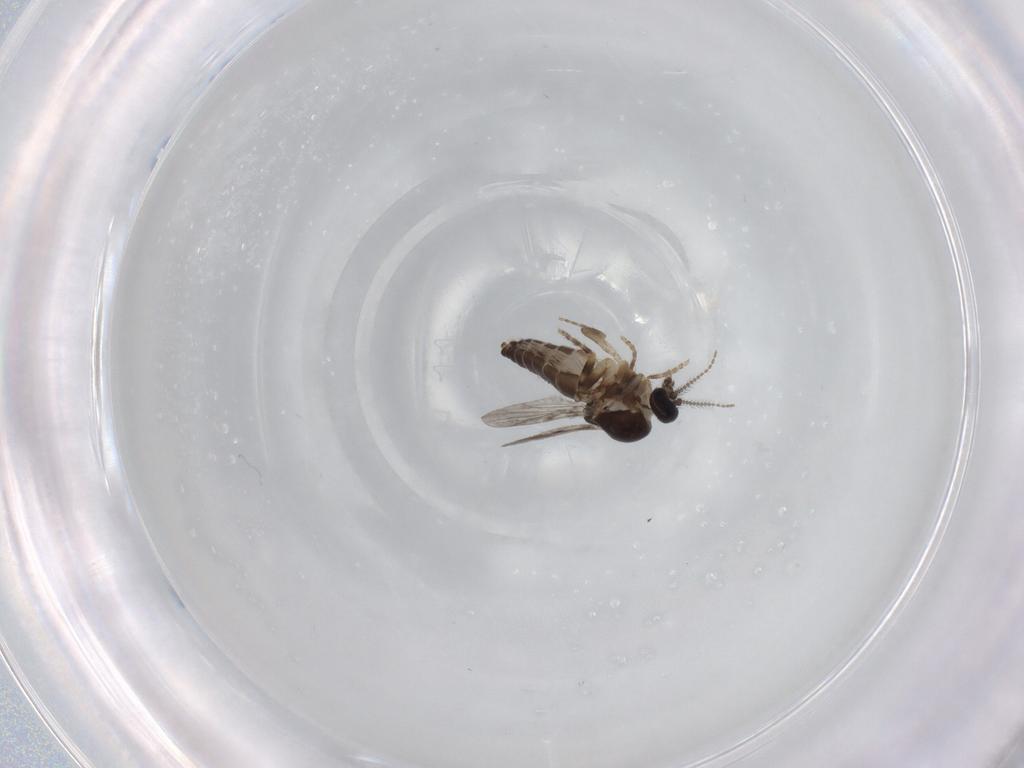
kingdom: Animalia
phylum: Arthropoda
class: Insecta
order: Diptera
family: Ceratopogonidae
